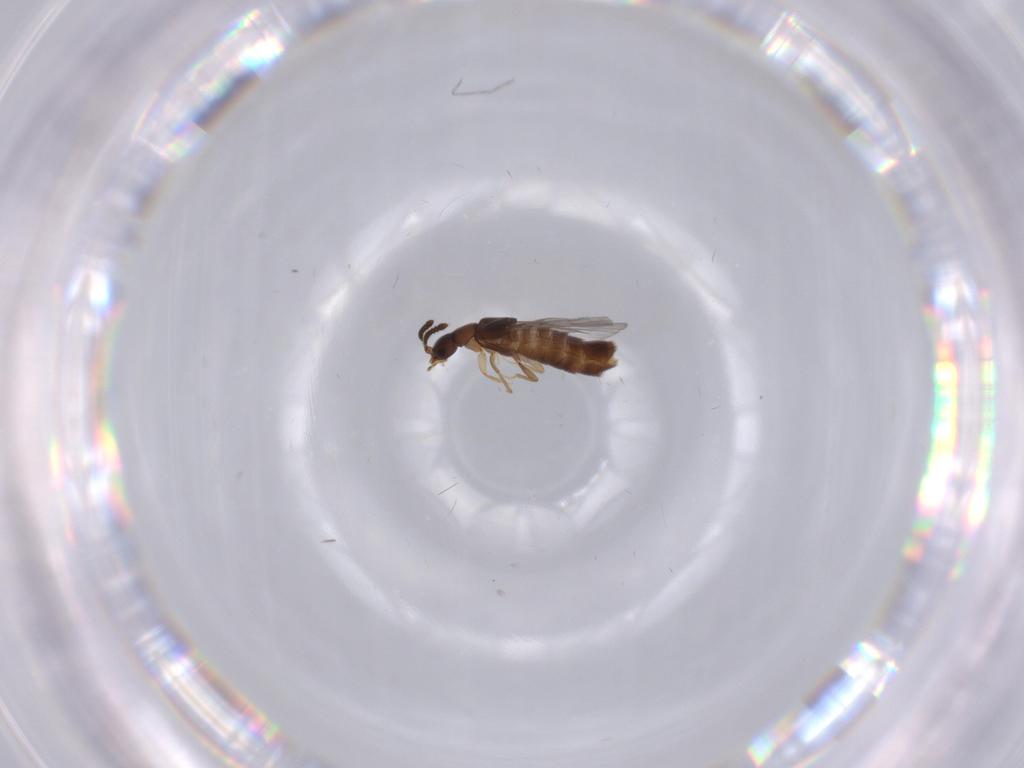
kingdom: Animalia
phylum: Arthropoda
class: Insecta
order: Coleoptera
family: Staphylinidae
